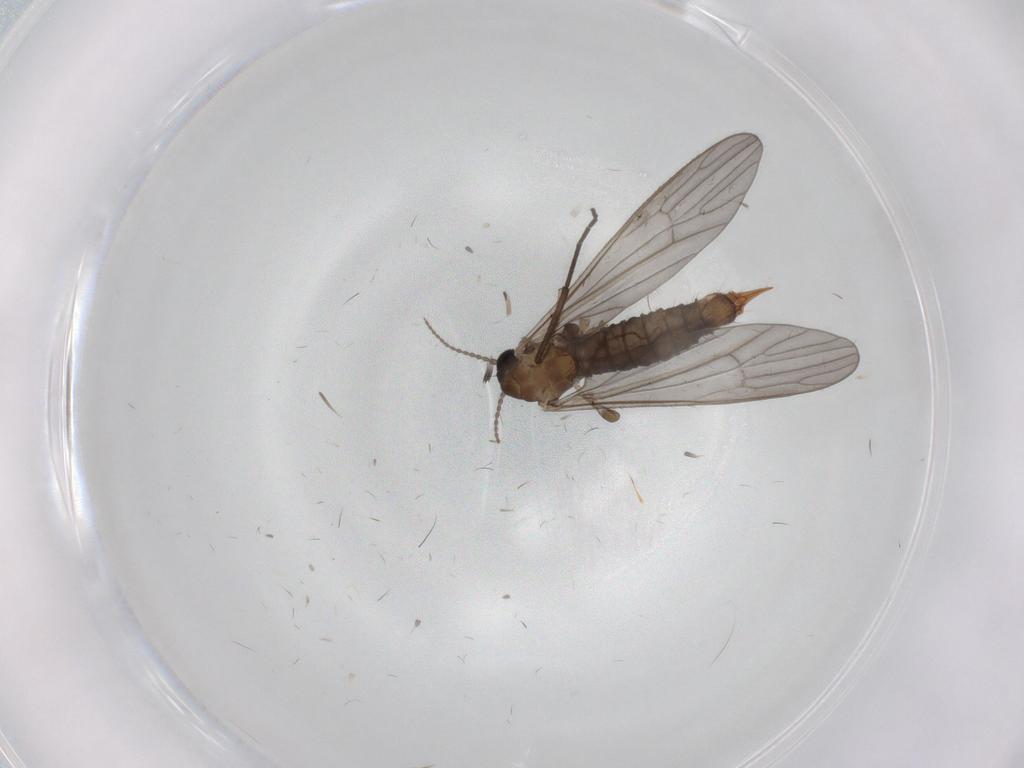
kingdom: Animalia
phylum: Arthropoda
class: Insecta
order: Diptera
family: Limoniidae
